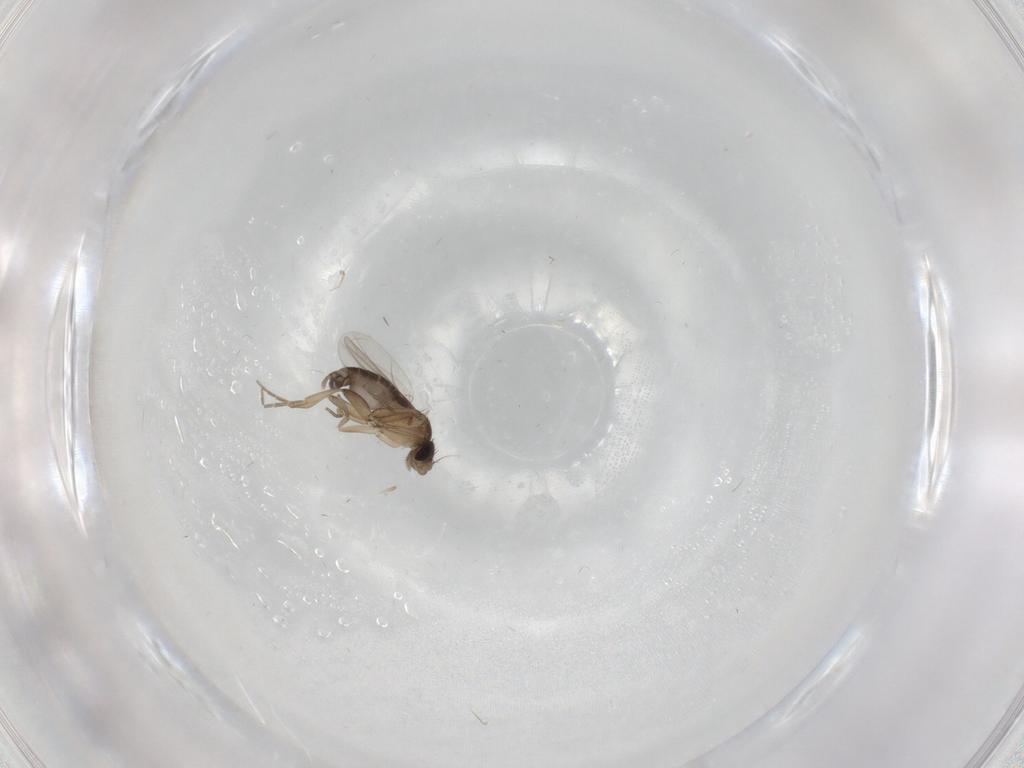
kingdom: Animalia
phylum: Arthropoda
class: Insecta
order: Diptera
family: Phoridae
